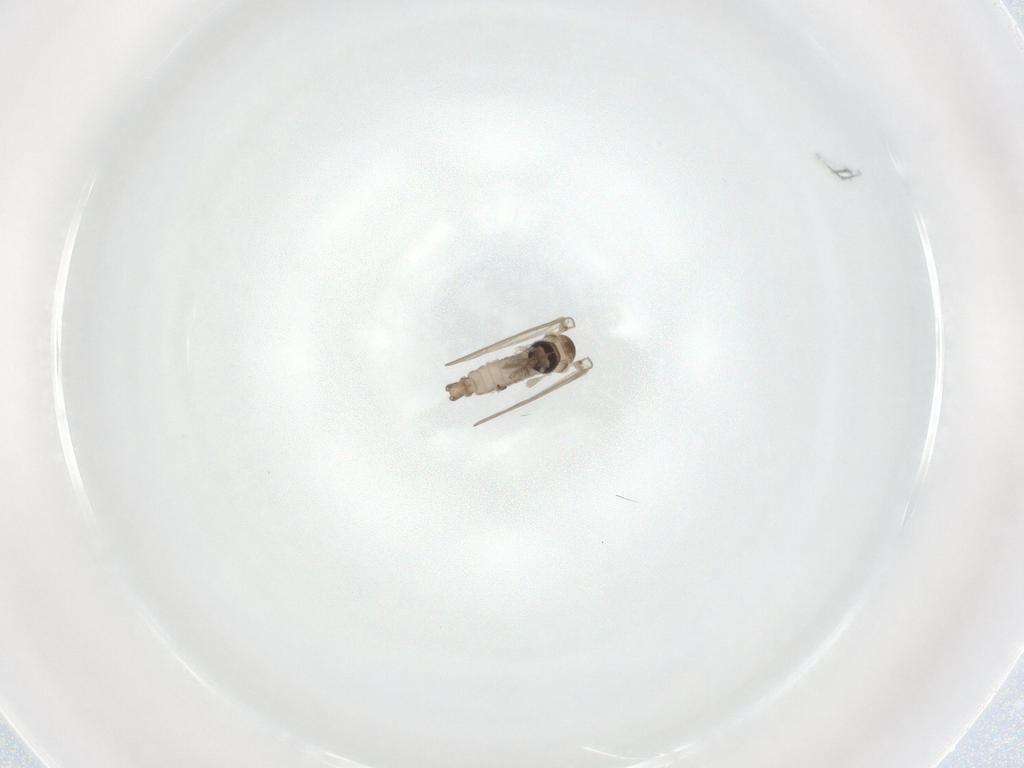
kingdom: Animalia
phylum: Arthropoda
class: Insecta
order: Diptera
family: Psychodidae
